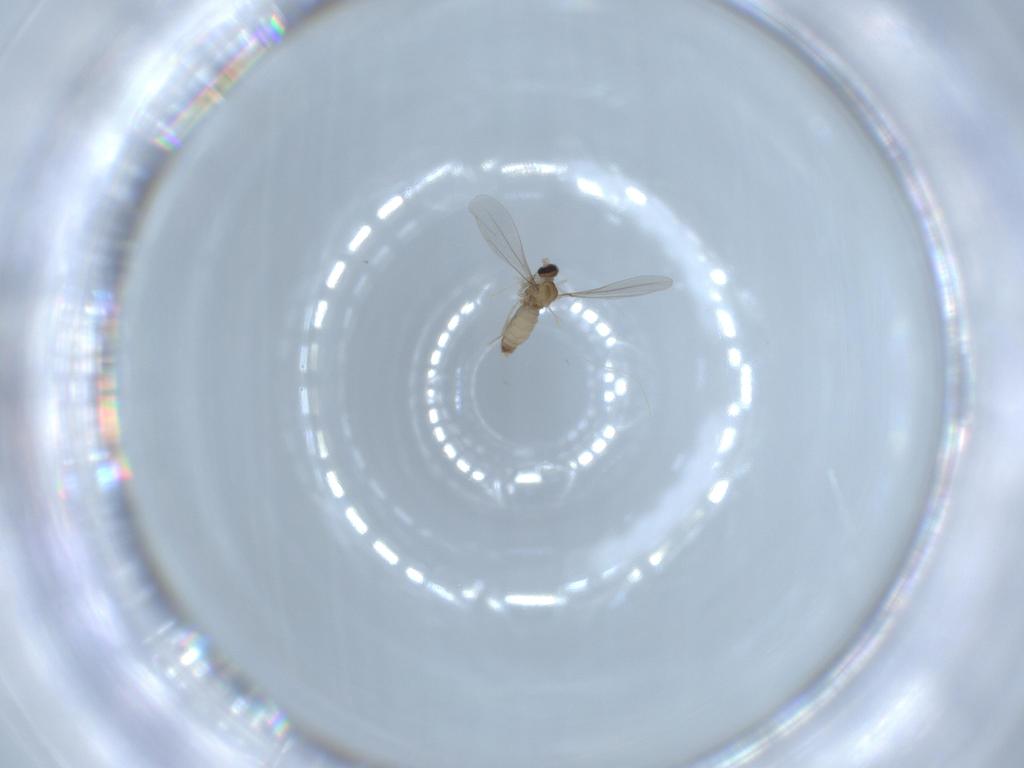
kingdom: Animalia
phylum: Arthropoda
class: Insecta
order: Diptera
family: Cecidomyiidae
